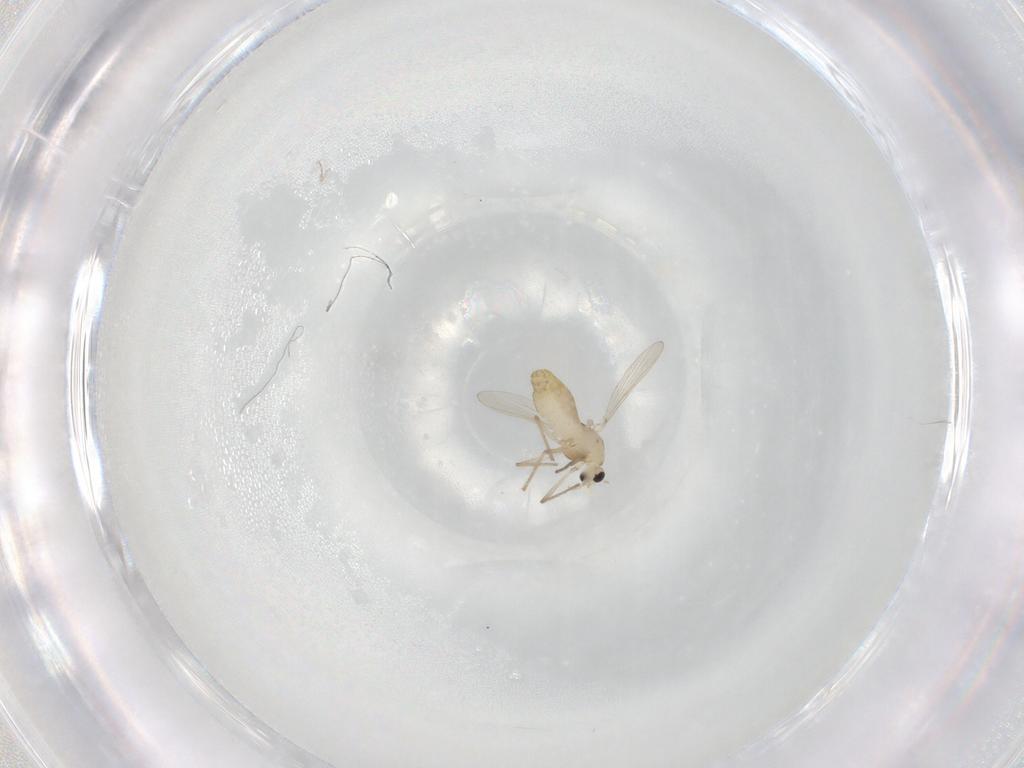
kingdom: Animalia
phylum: Arthropoda
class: Insecta
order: Diptera
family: Chironomidae
